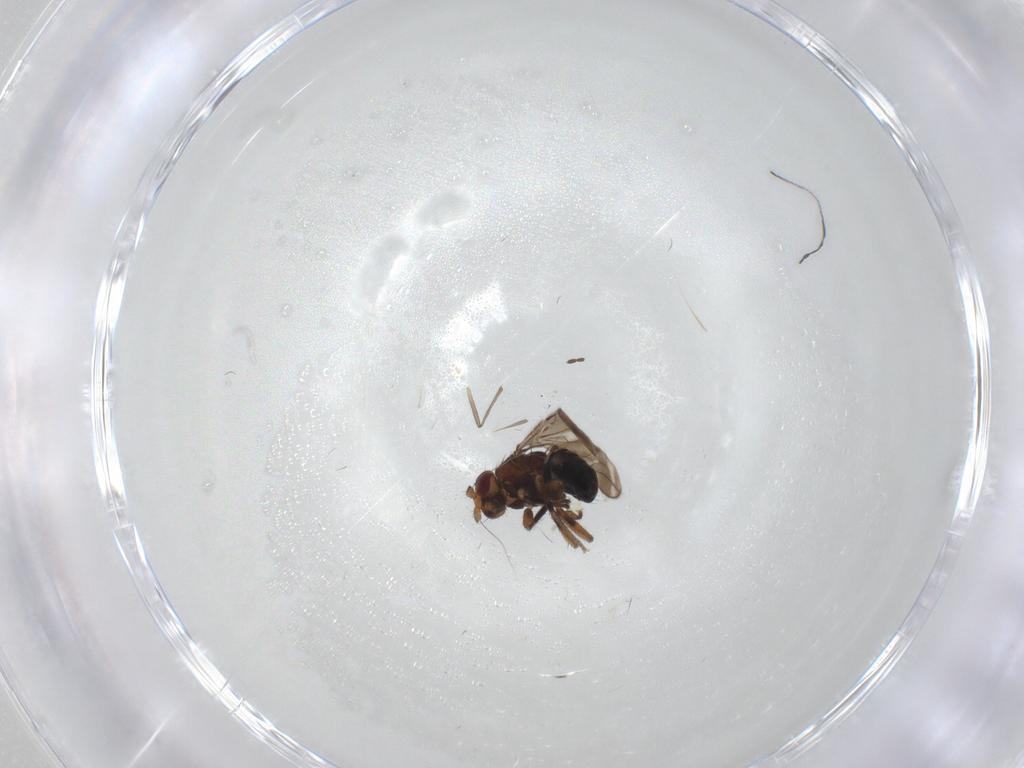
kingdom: Animalia
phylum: Arthropoda
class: Insecta
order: Diptera
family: Sphaeroceridae
